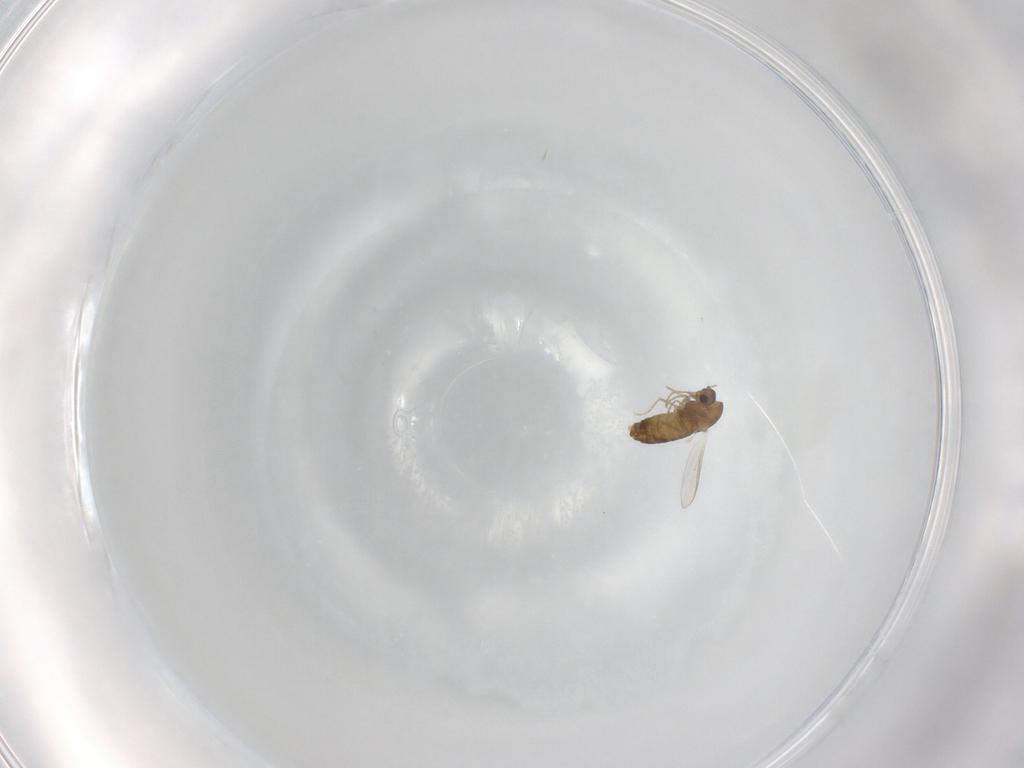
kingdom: Animalia
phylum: Arthropoda
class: Insecta
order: Diptera
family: Chironomidae
